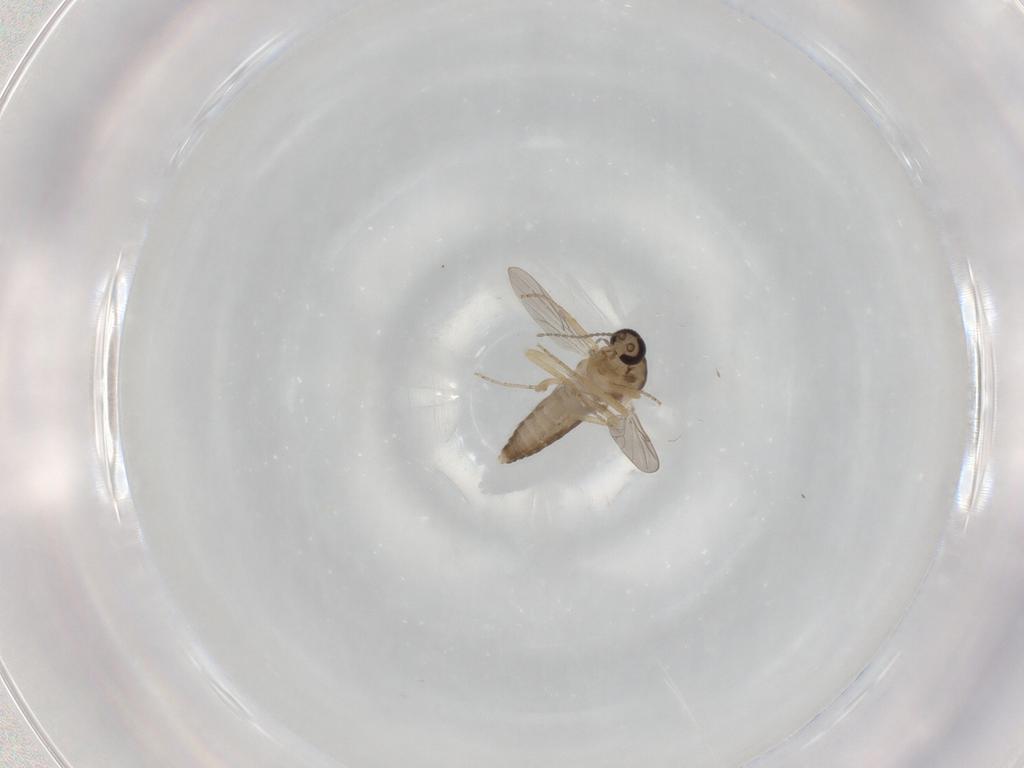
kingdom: Animalia
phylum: Arthropoda
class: Insecta
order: Diptera
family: Ceratopogonidae
